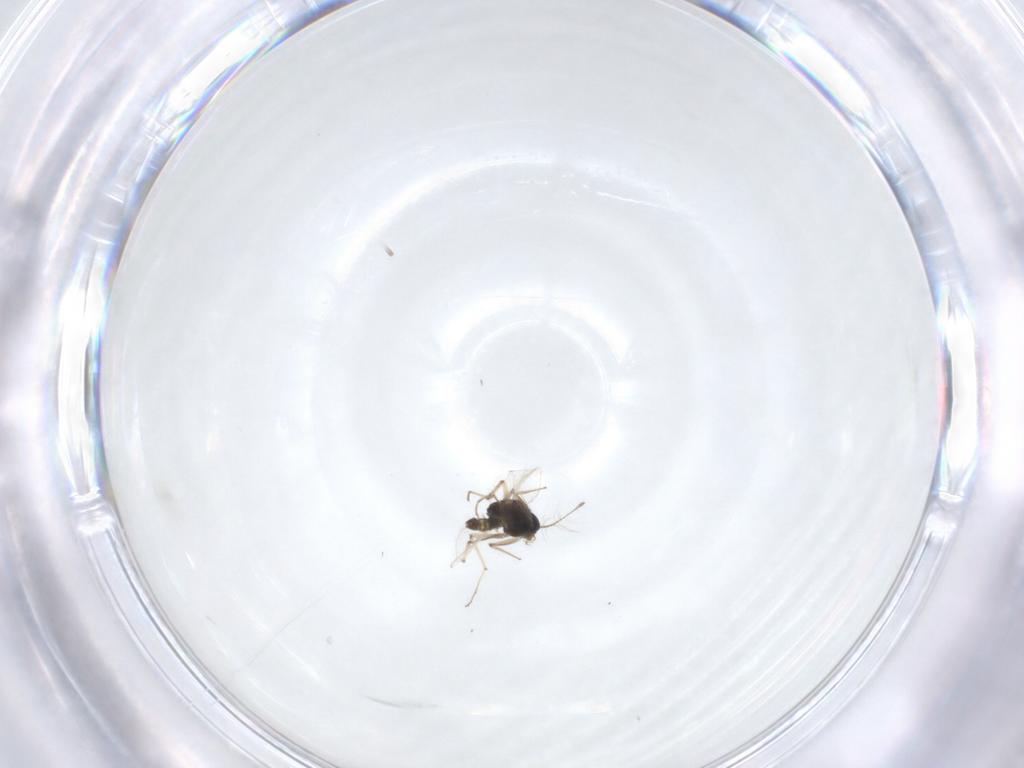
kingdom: Animalia
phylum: Arthropoda
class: Insecta
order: Diptera
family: Chironomidae
